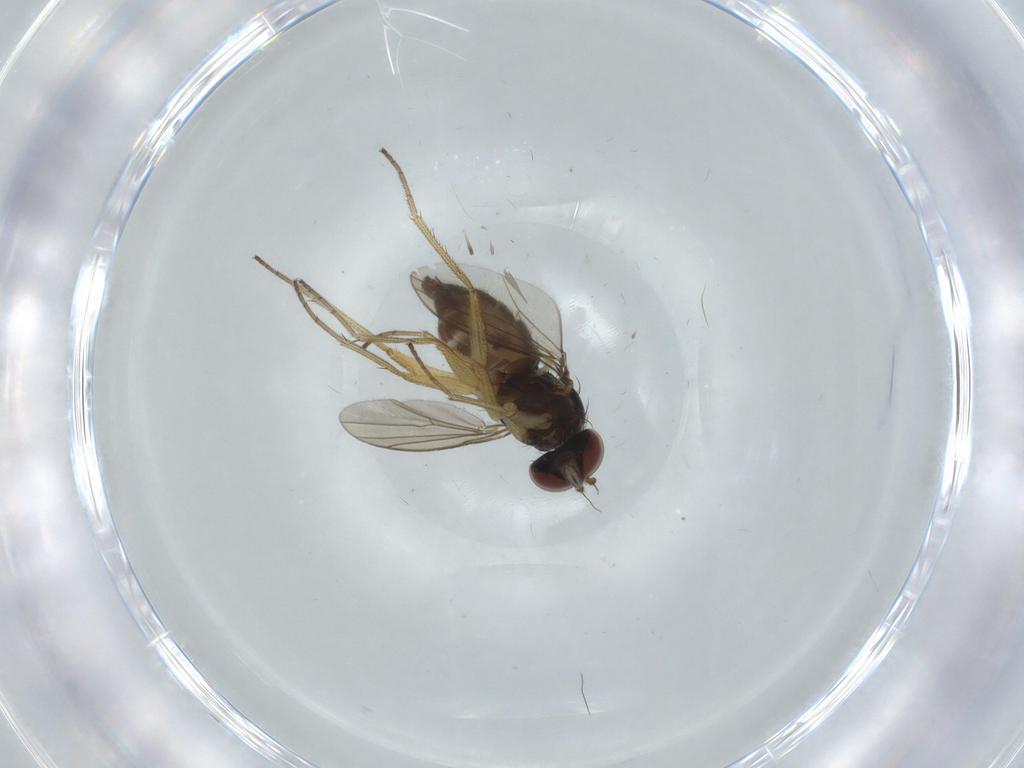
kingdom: Animalia
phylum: Arthropoda
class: Insecta
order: Diptera
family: Dolichopodidae
